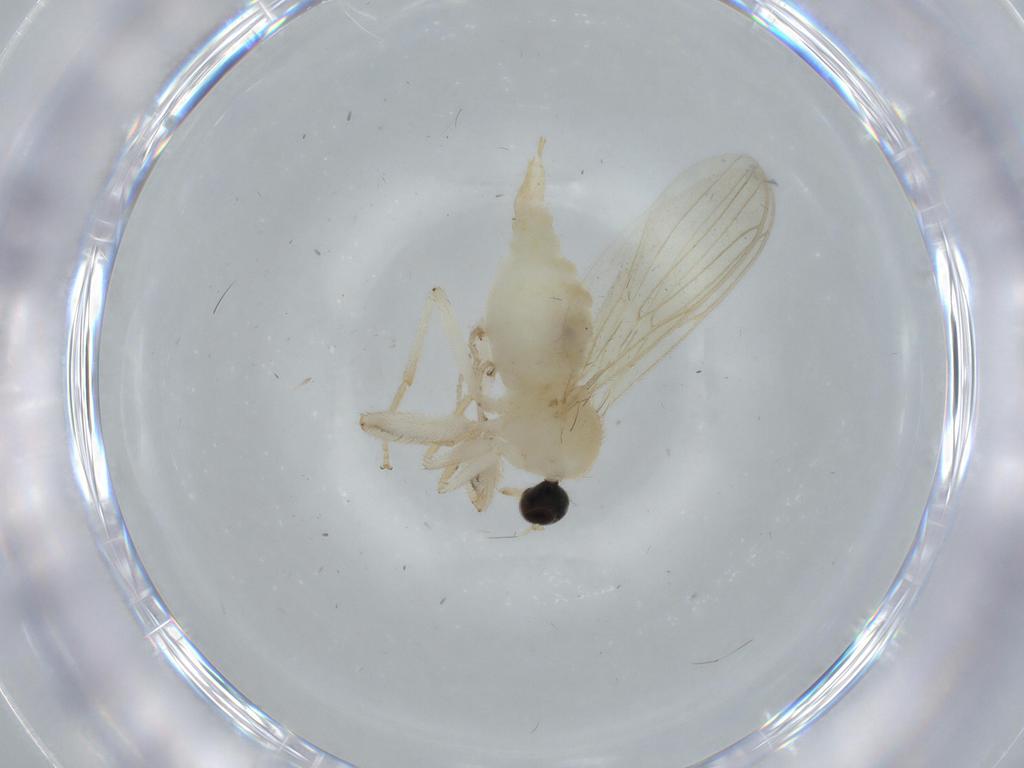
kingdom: Animalia
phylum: Arthropoda
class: Insecta
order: Diptera
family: Hybotidae
